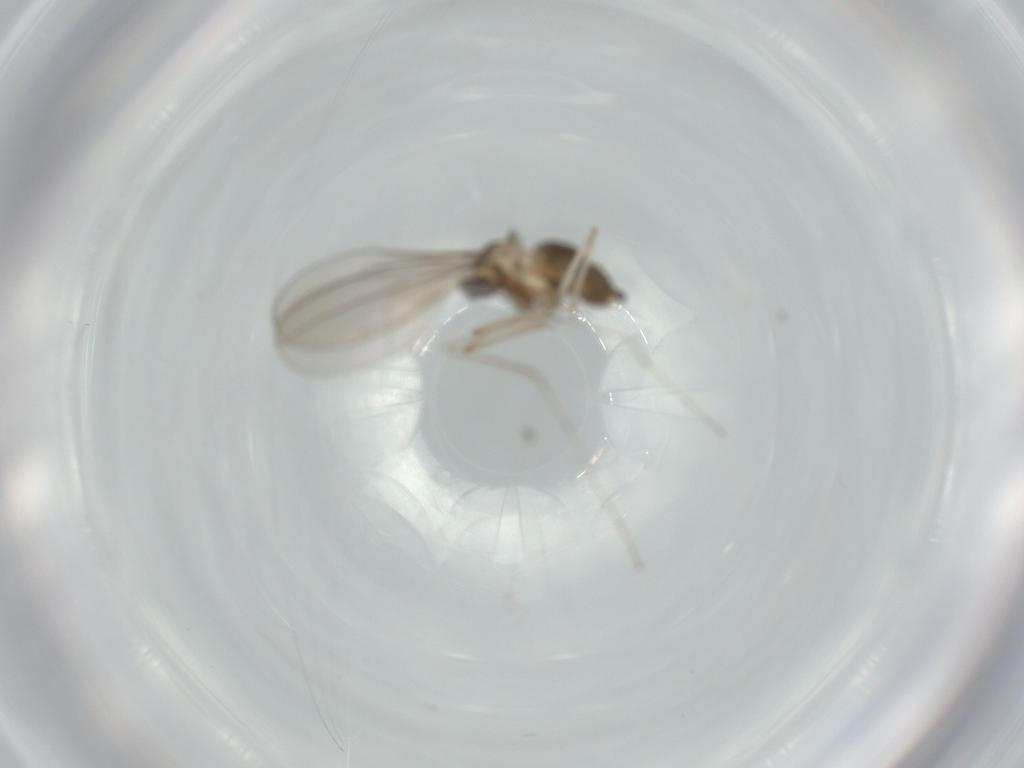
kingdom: Animalia
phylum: Arthropoda
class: Insecta
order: Diptera
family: Cecidomyiidae
